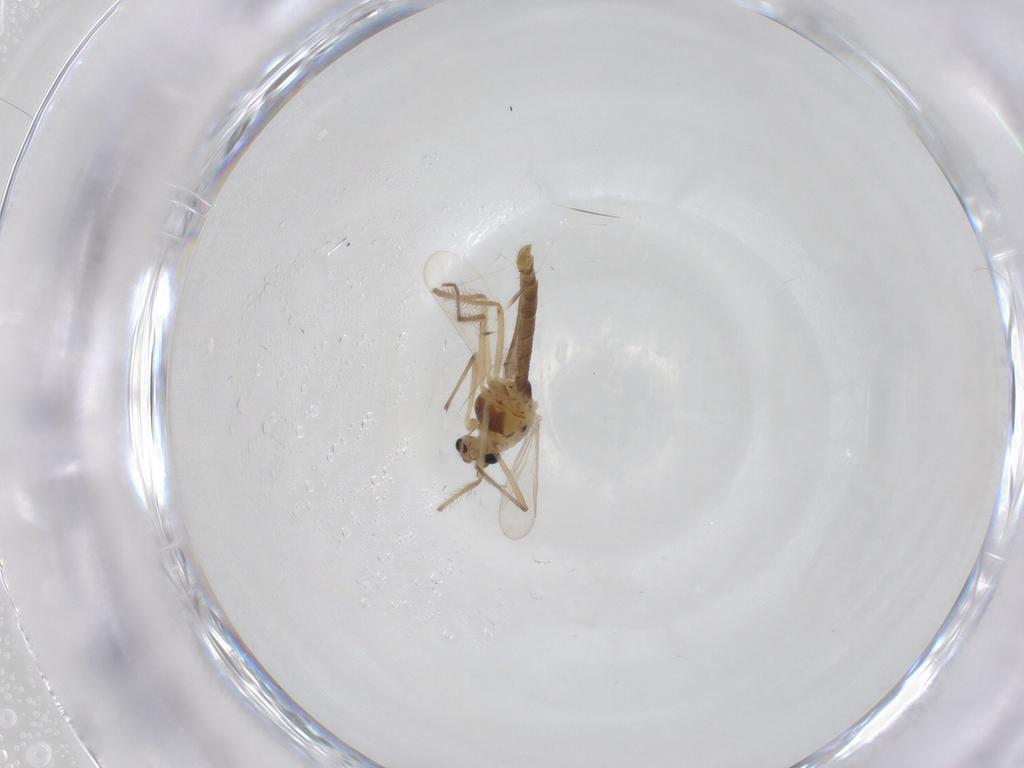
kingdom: Animalia
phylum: Arthropoda
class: Insecta
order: Diptera
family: Chironomidae
